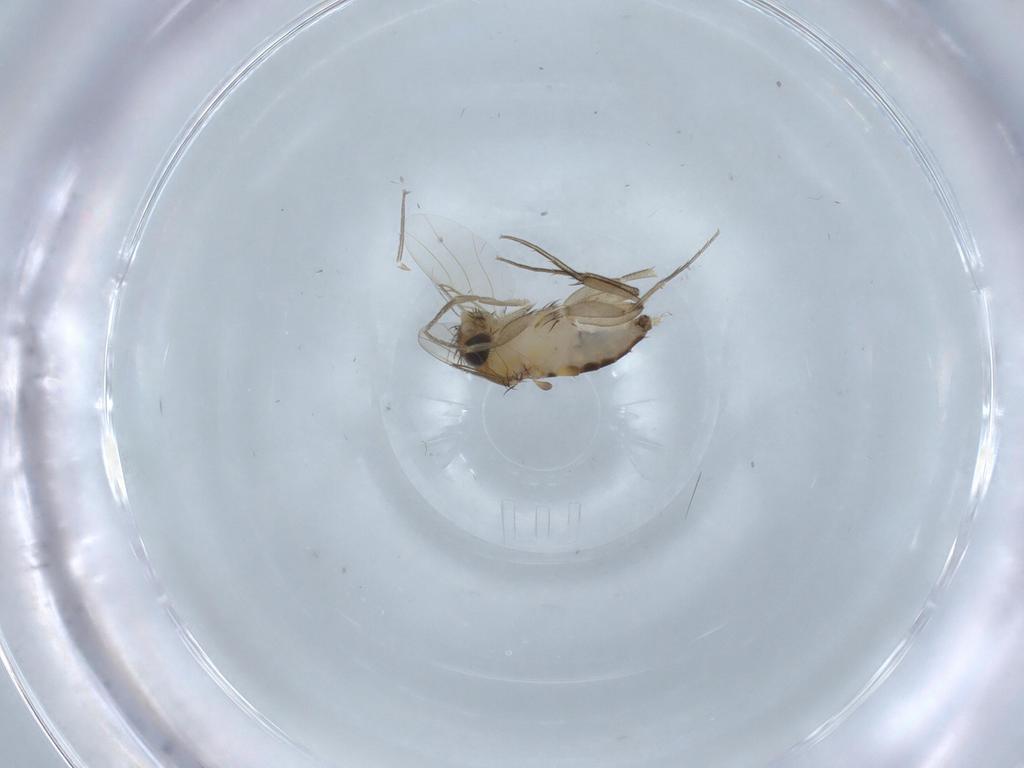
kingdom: Animalia
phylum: Arthropoda
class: Insecta
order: Diptera
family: Phoridae
